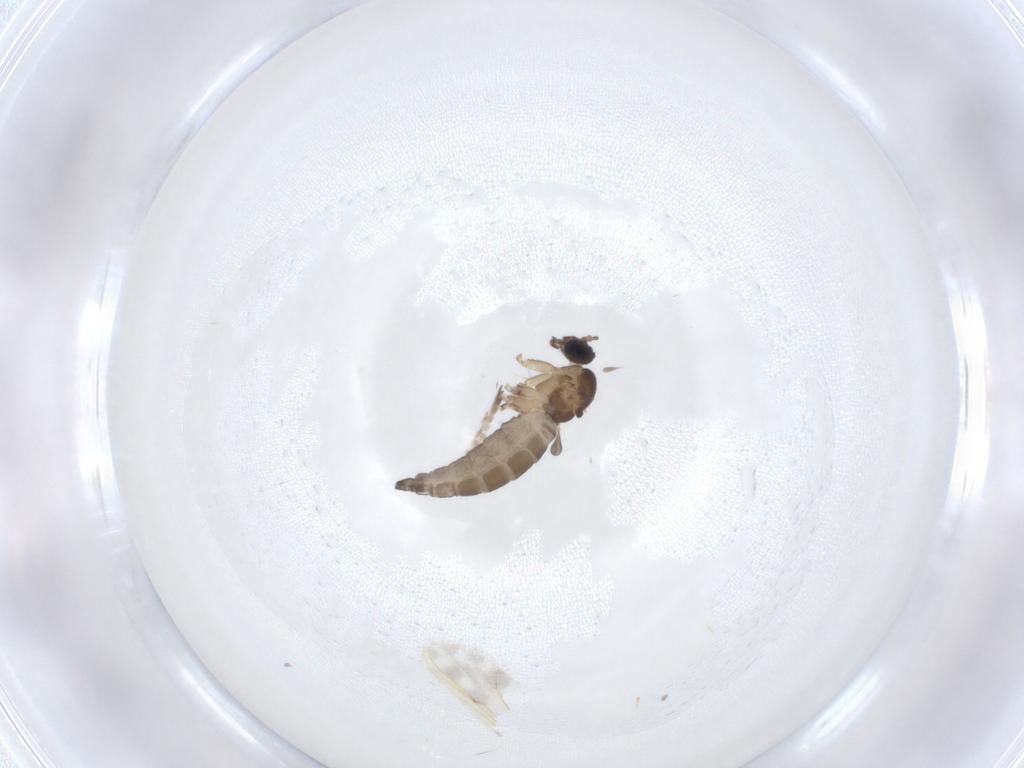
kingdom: Animalia
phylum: Arthropoda
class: Insecta
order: Diptera
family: Sciaridae
